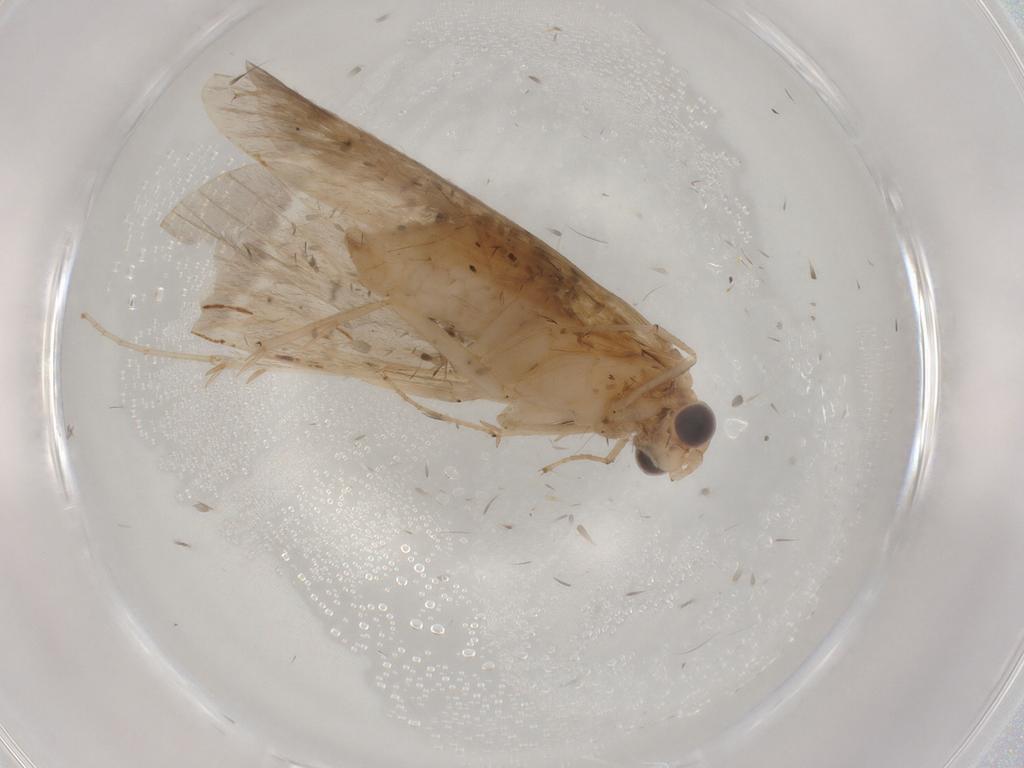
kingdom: Animalia
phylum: Arthropoda
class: Insecta
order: Trichoptera
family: Hydropsychidae
